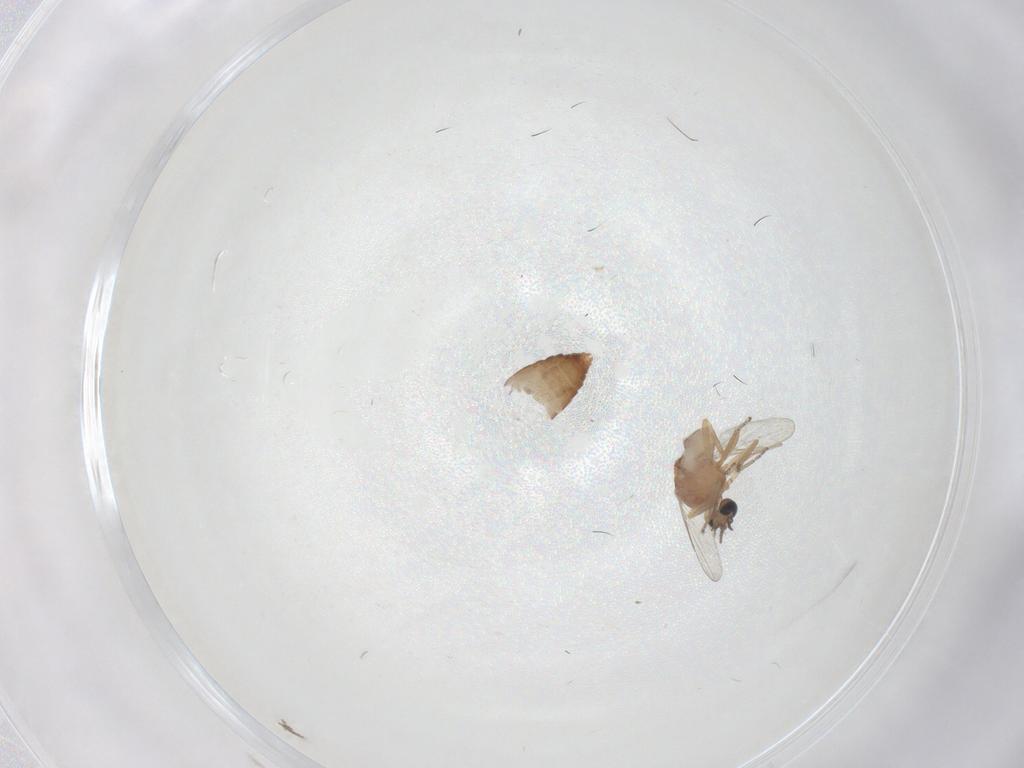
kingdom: Animalia
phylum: Arthropoda
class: Insecta
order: Diptera
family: Ceratopogonidae
